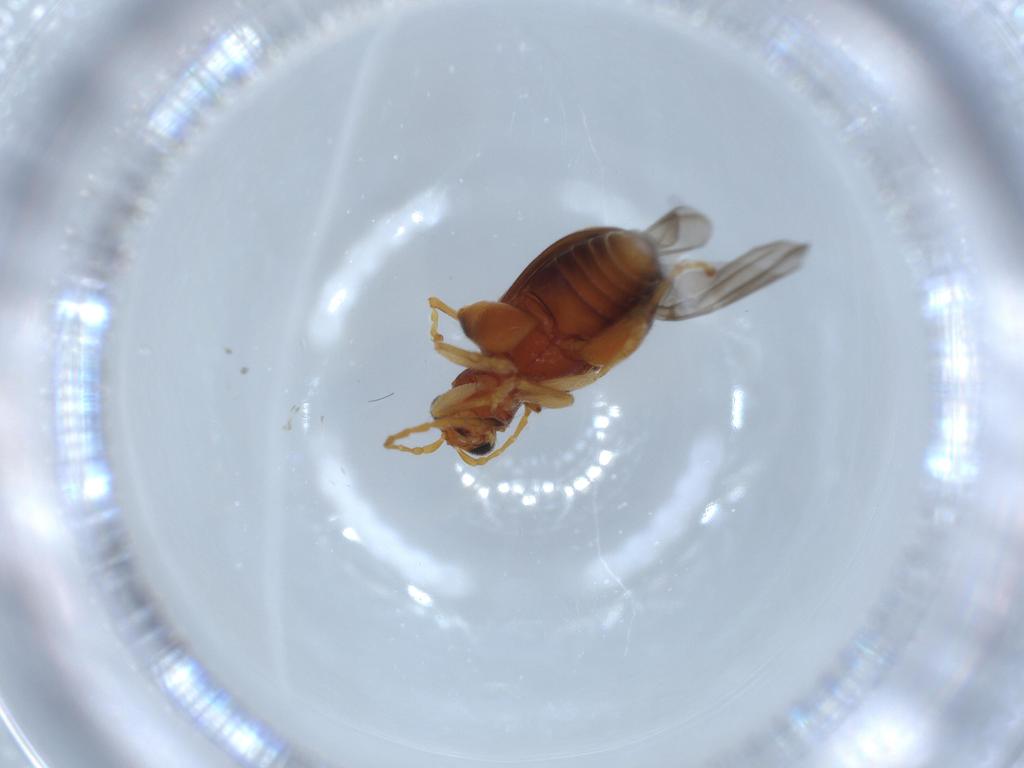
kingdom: Animalia
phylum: Arthropoda
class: Insecta
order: Coleoptera
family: Chrysomelidae
